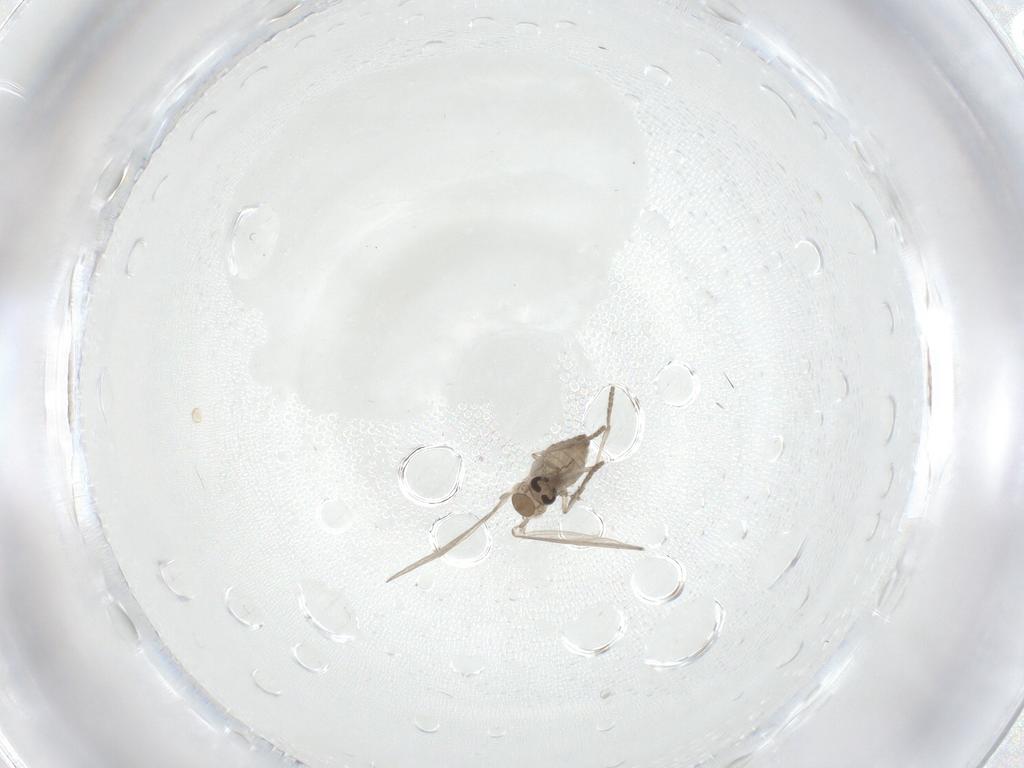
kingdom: Animalia
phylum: Arthropoda
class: Insecta
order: Diptera
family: Psychodidae
